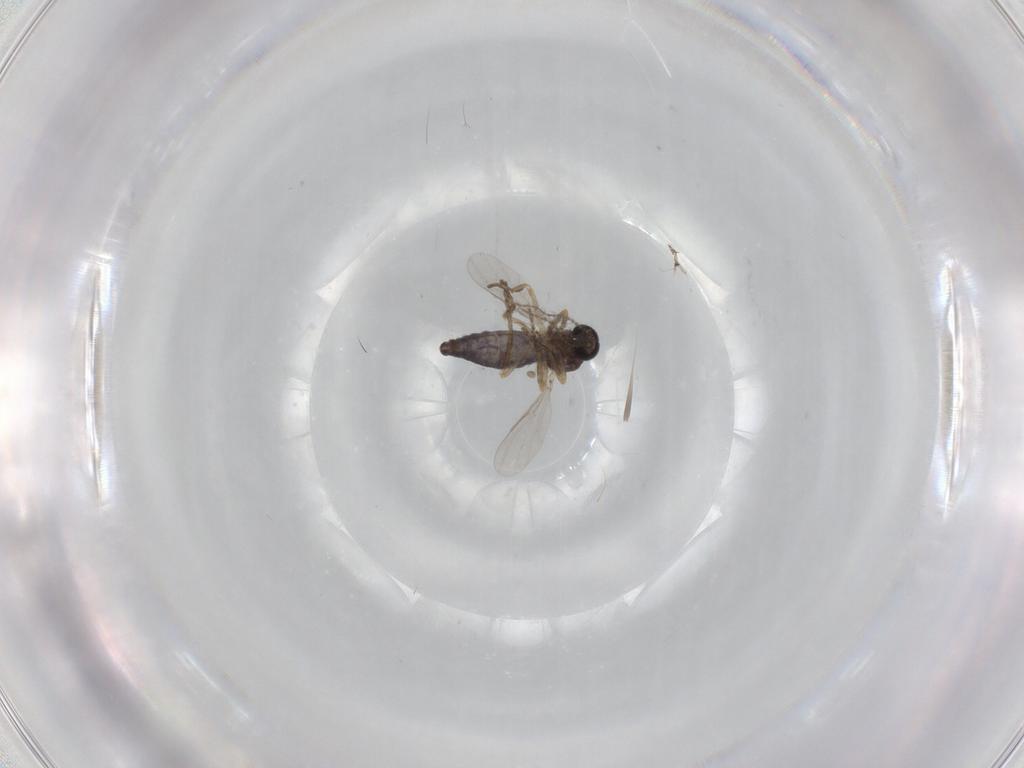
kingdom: Animalia
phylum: Arthropoda
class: Insecta
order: Diptera
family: Ceratopogonidae
